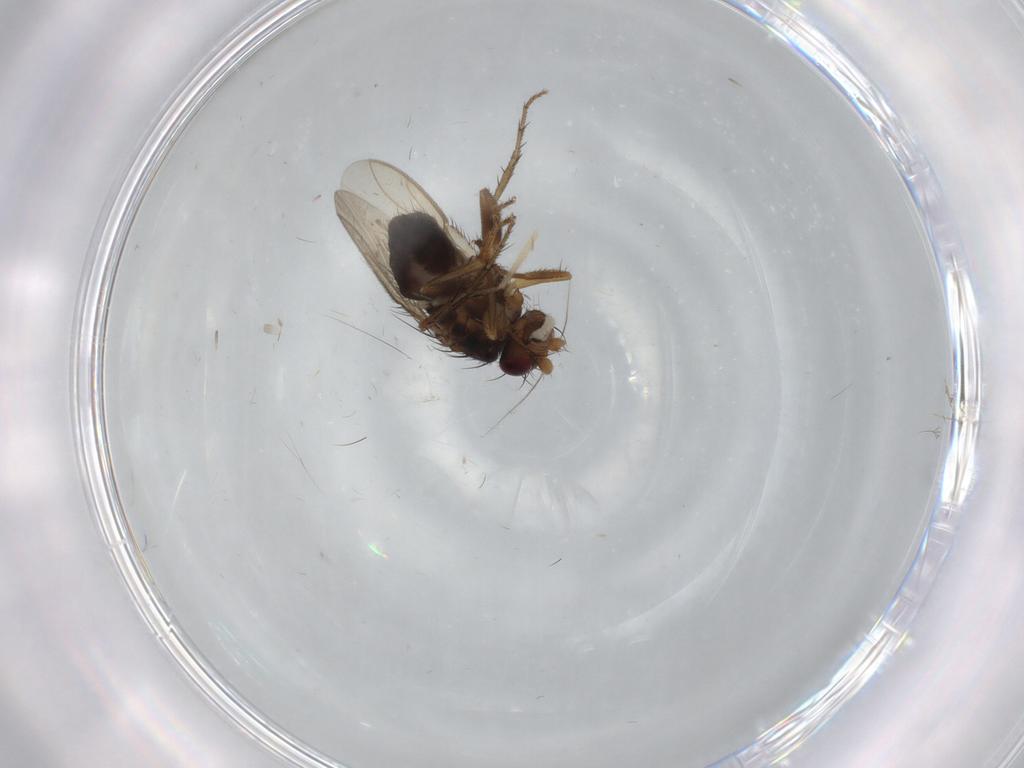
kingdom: Animalia
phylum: Arthropoda
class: Insecta
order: Diptera
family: Sphaeroceridae
